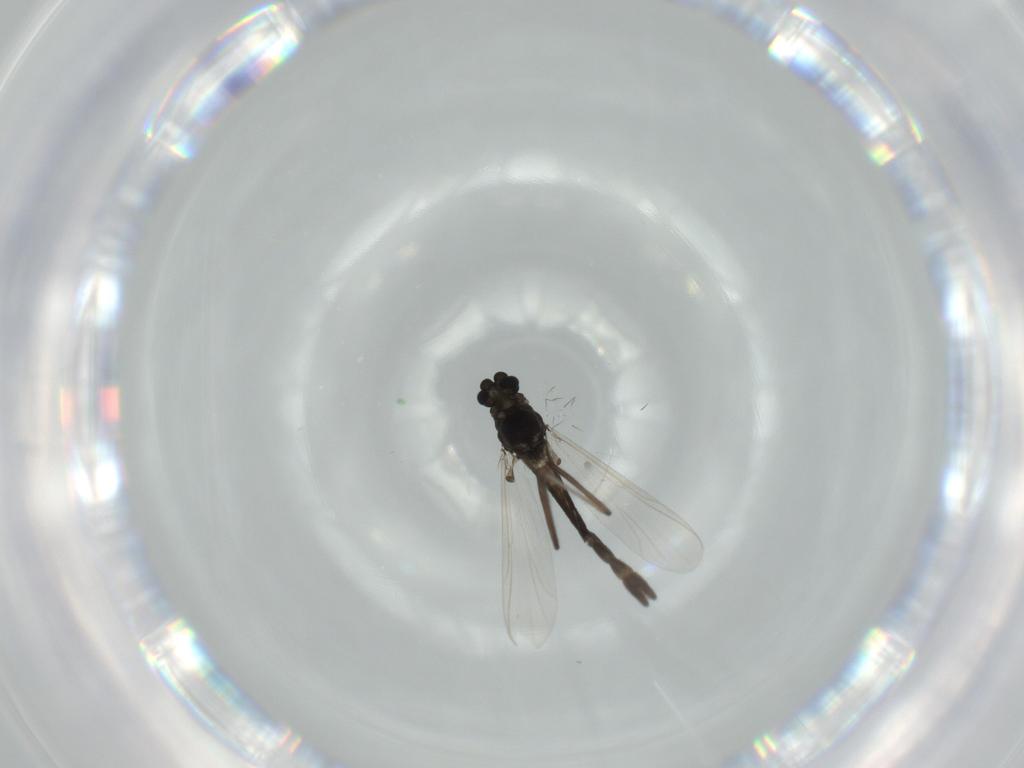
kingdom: Animalia
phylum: Arthropoda
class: Insecta
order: Diptera
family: Chironomidae
